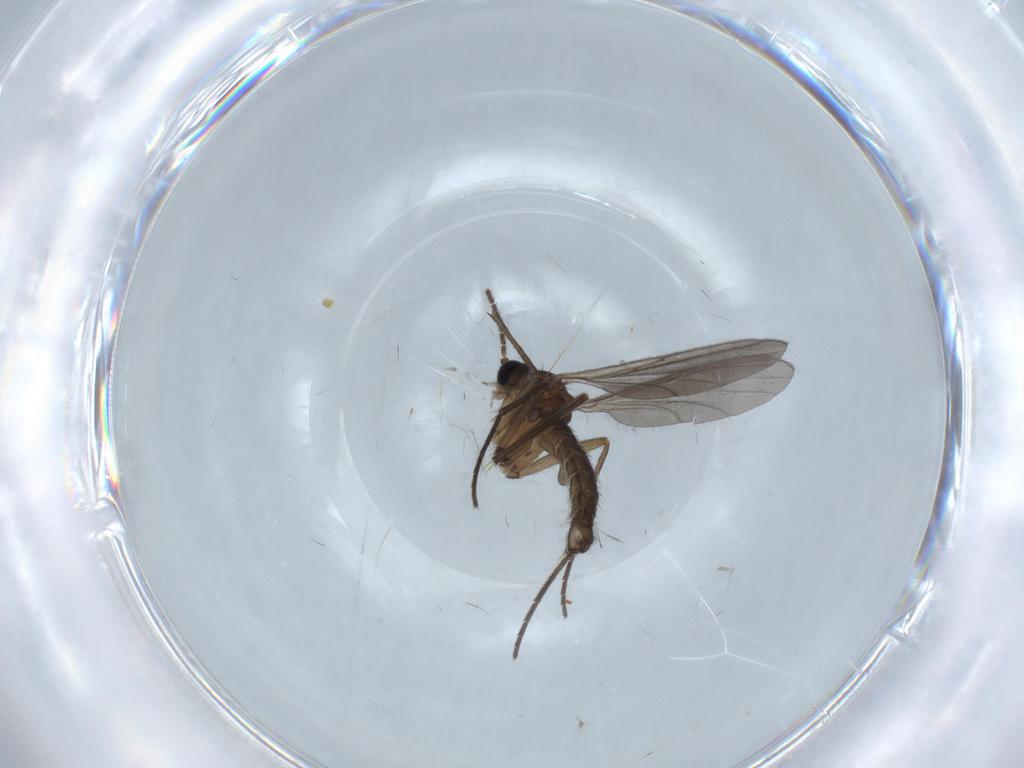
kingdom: Animalia
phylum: Arthropoda
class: Insecta
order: Diptera
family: Sciaridae
